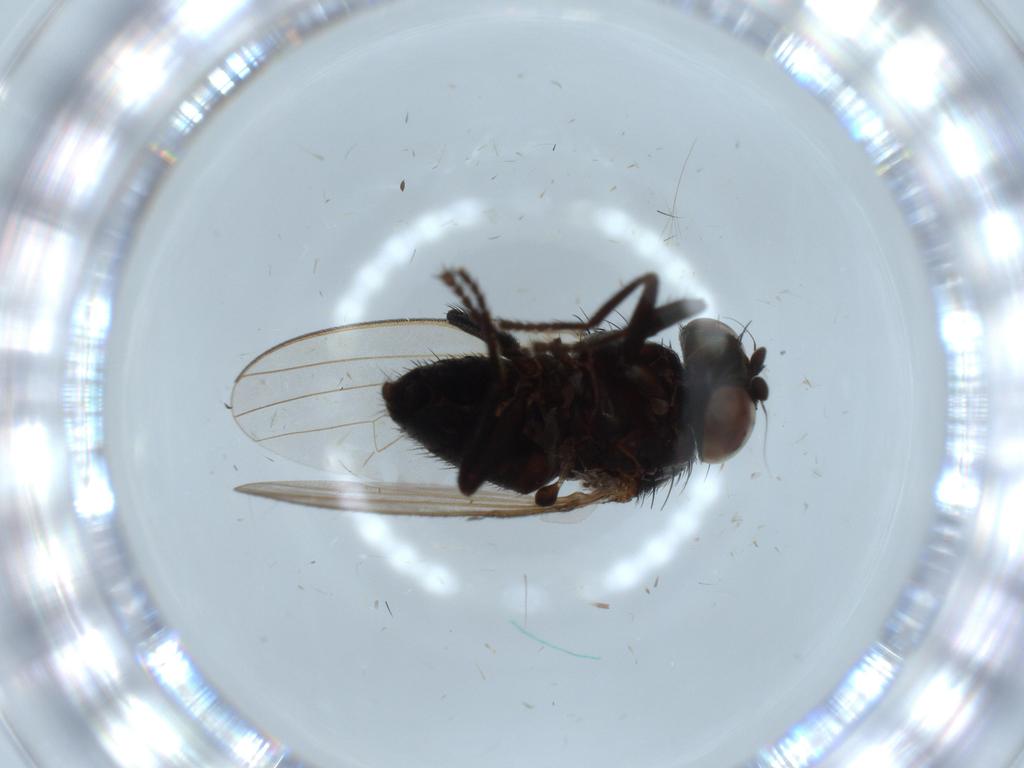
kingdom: Animalia
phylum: Arthropoda
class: Insecta
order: Diptera
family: Milichiidae
